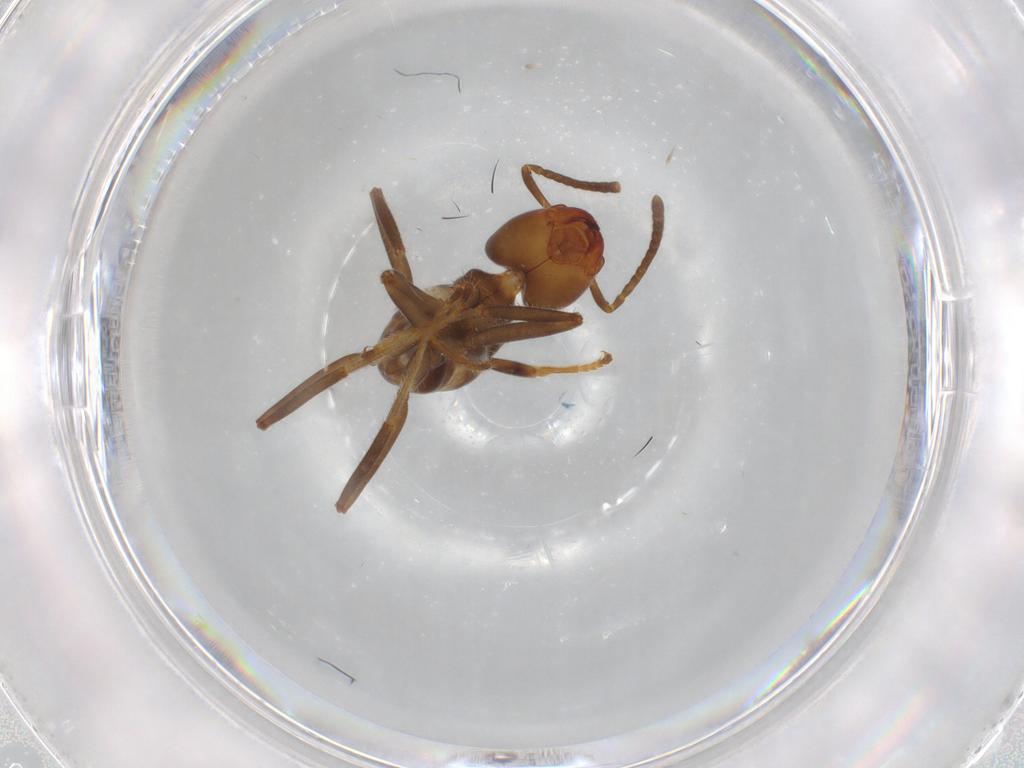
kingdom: Animalia
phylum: Arthropoda
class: Insecta
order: Hymenoptera
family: Formicidae
